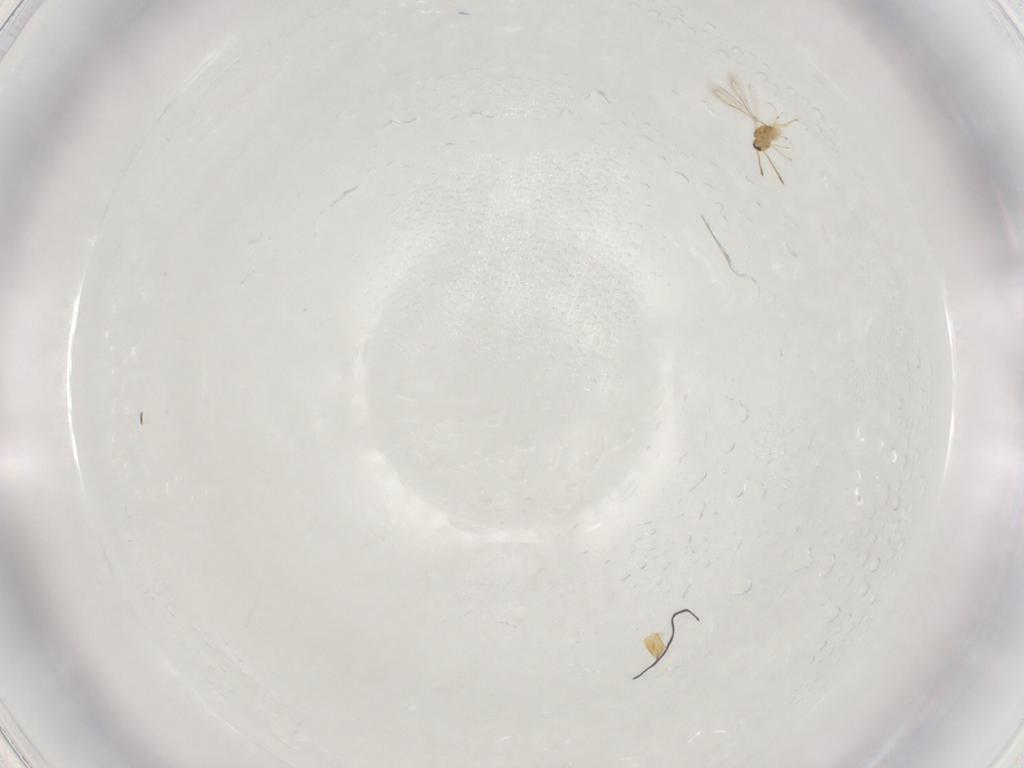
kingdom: Animalia
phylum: Arthropoda
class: Insecta
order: Hymenoptera
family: Mymaridae
